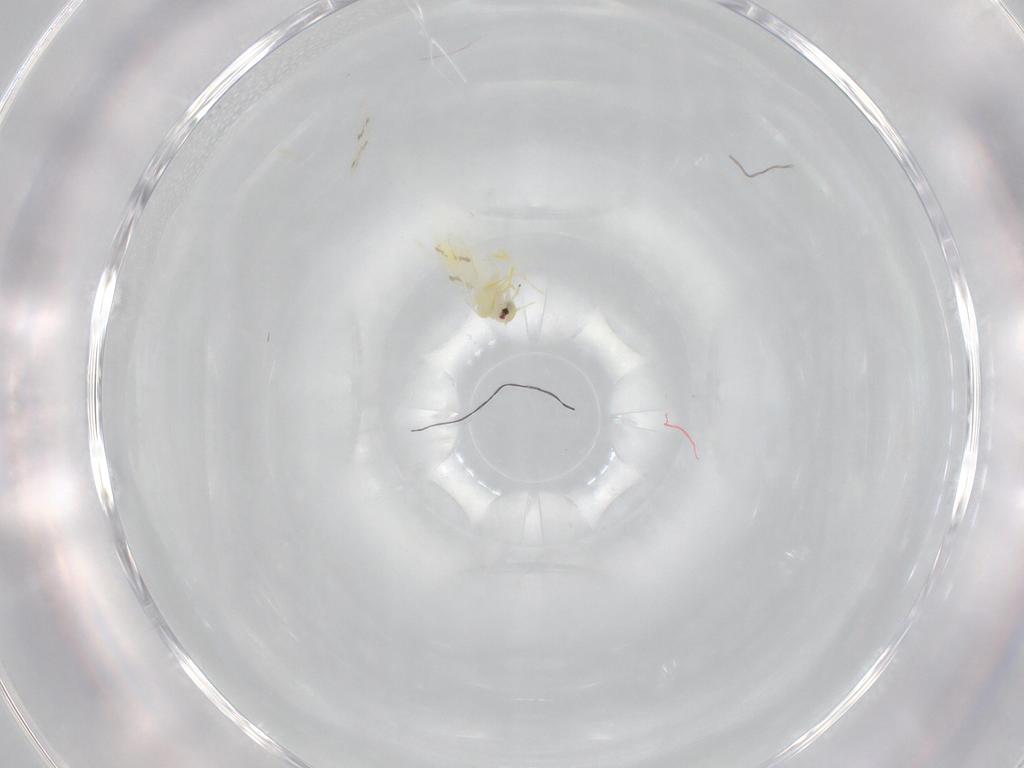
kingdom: Animalia
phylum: Arthropoda
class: Insecta
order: Hemiptera
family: Aleyrodidae
